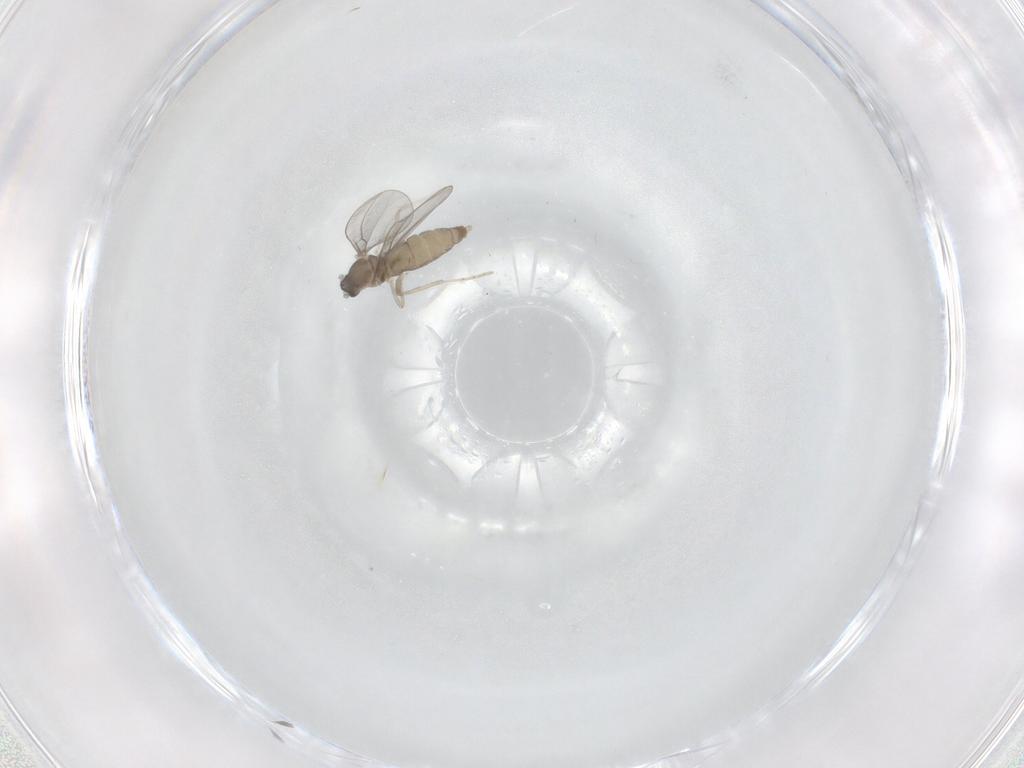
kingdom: Animalia
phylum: Arthropoda
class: Insecta
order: Diptera
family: Cecidomyiidae
